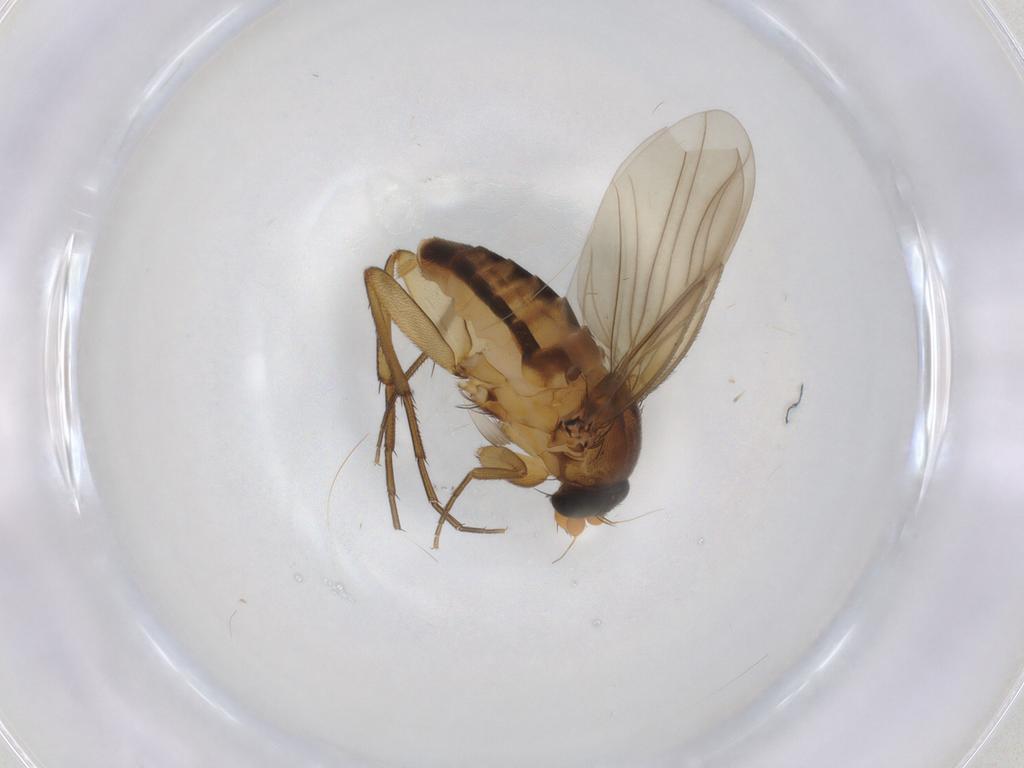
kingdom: Animalia
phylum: Arthropoda
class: Insecta
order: Diptera
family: Phoridae
